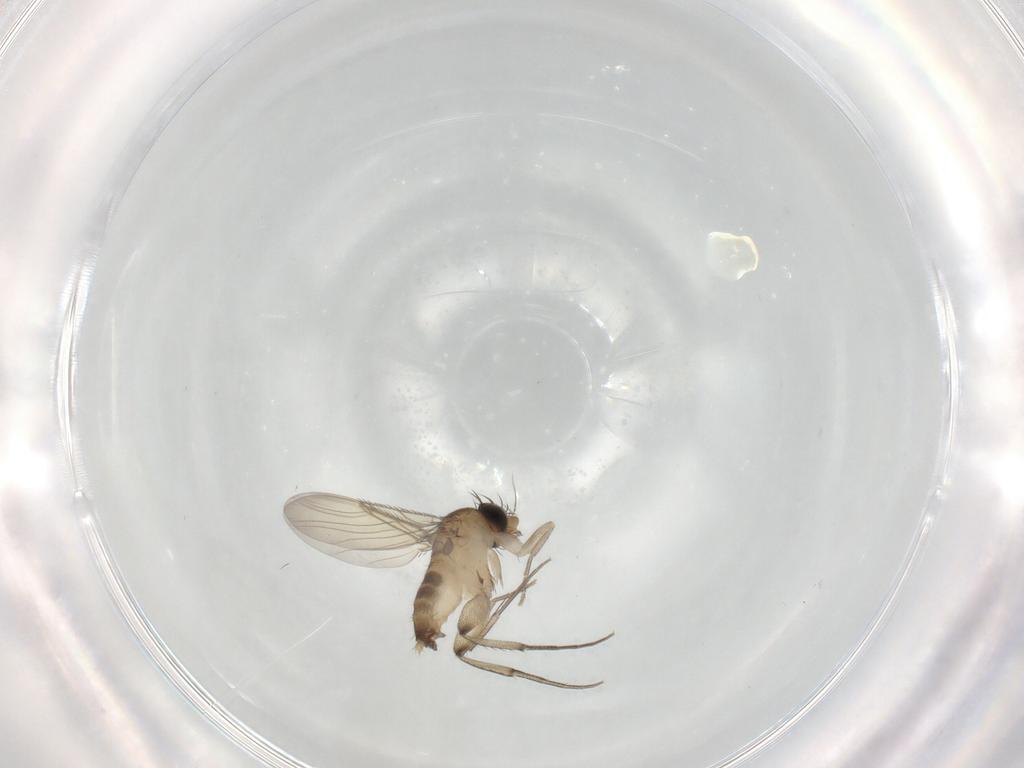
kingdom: Animalia
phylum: Arthropoda
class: Insecta
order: Diptera
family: Phoridae
